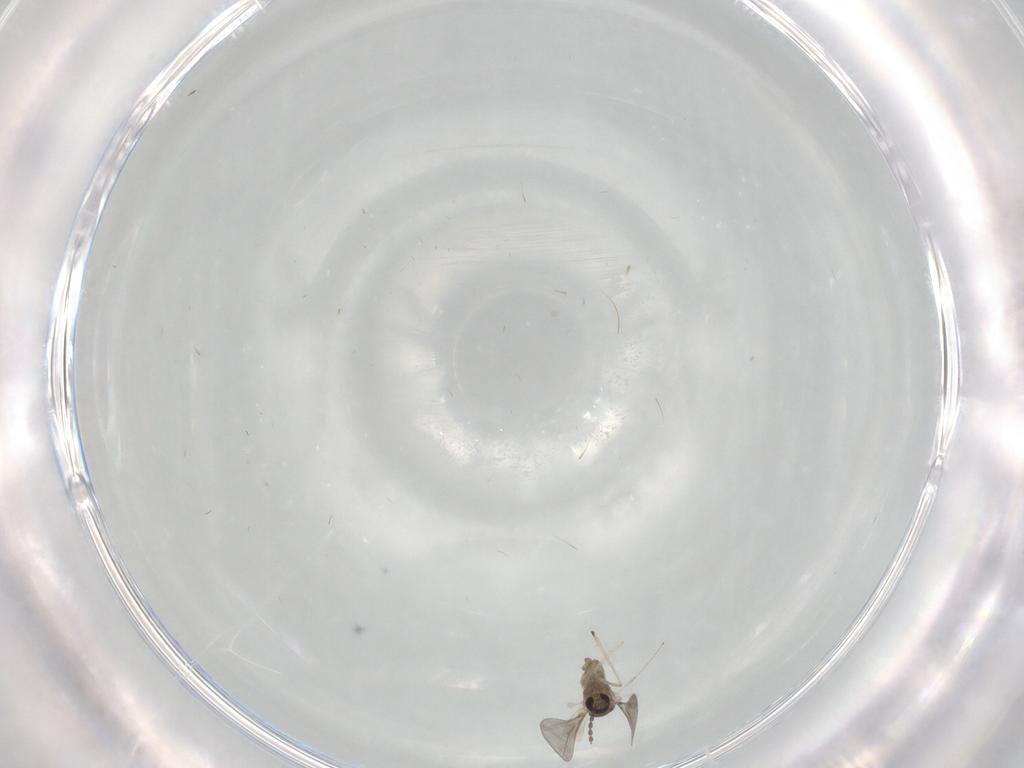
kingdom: Animalia
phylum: Arthropoda
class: Insecta
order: Diptera
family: Cecidomyiidae
